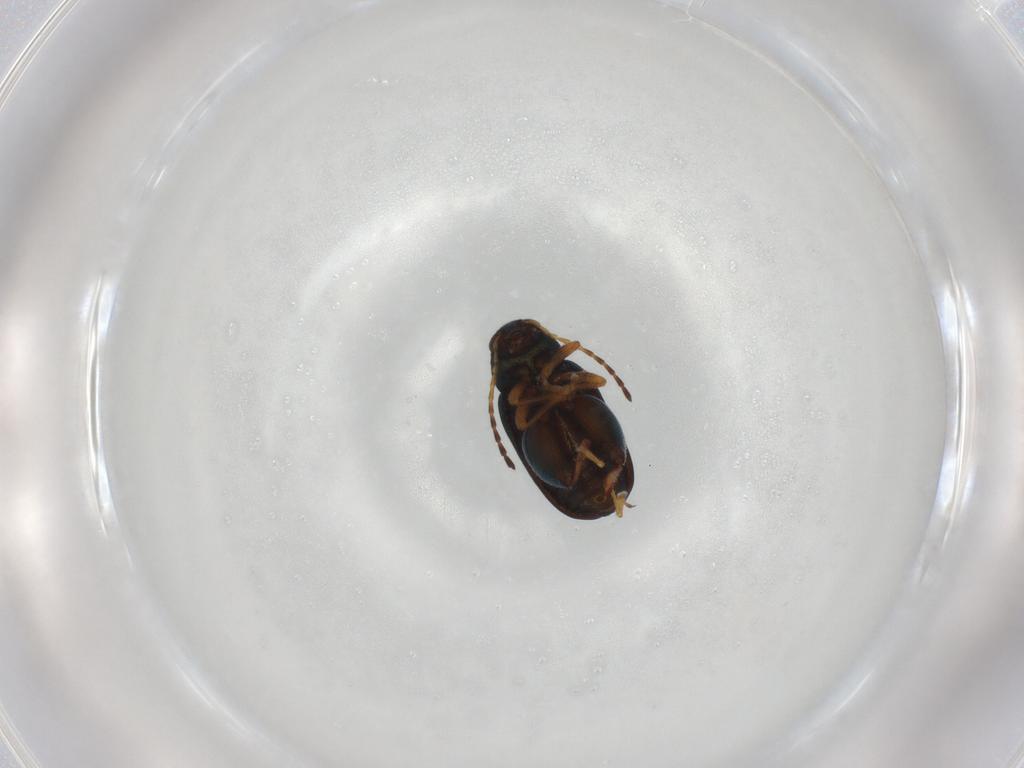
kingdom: Animalia
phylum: Arthropoda
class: Insecta
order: Coleoptera
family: Chrysomelidae
